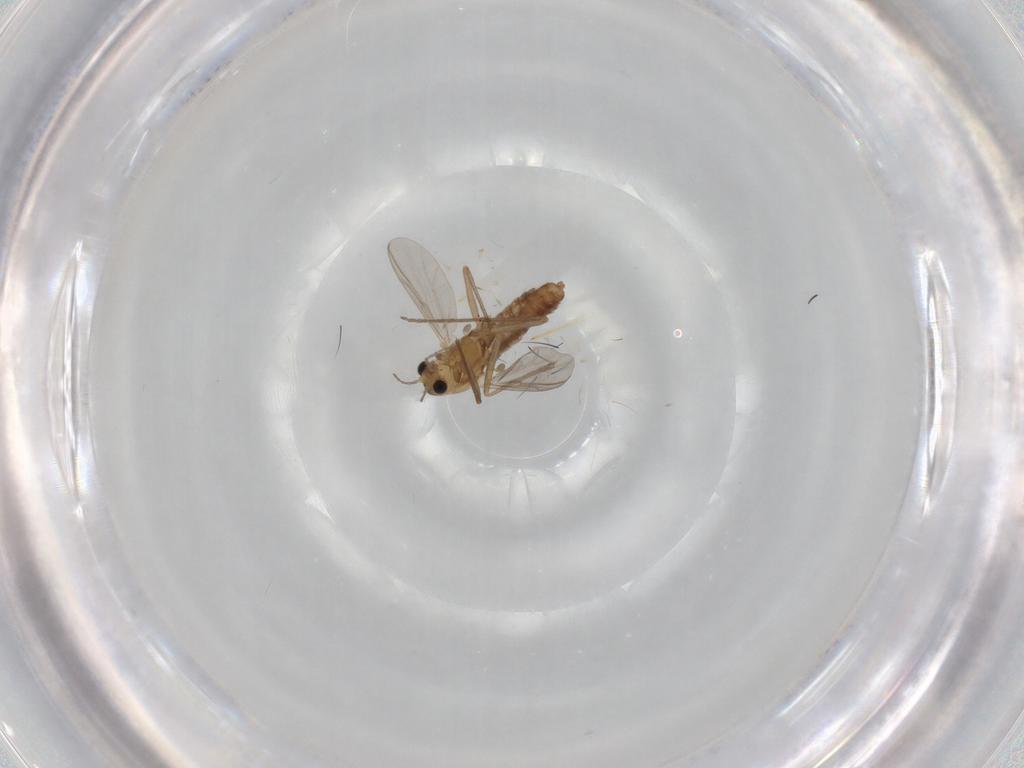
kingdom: Animalia
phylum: Arthropoda
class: Insecta
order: Diptera
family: Chironomidae
